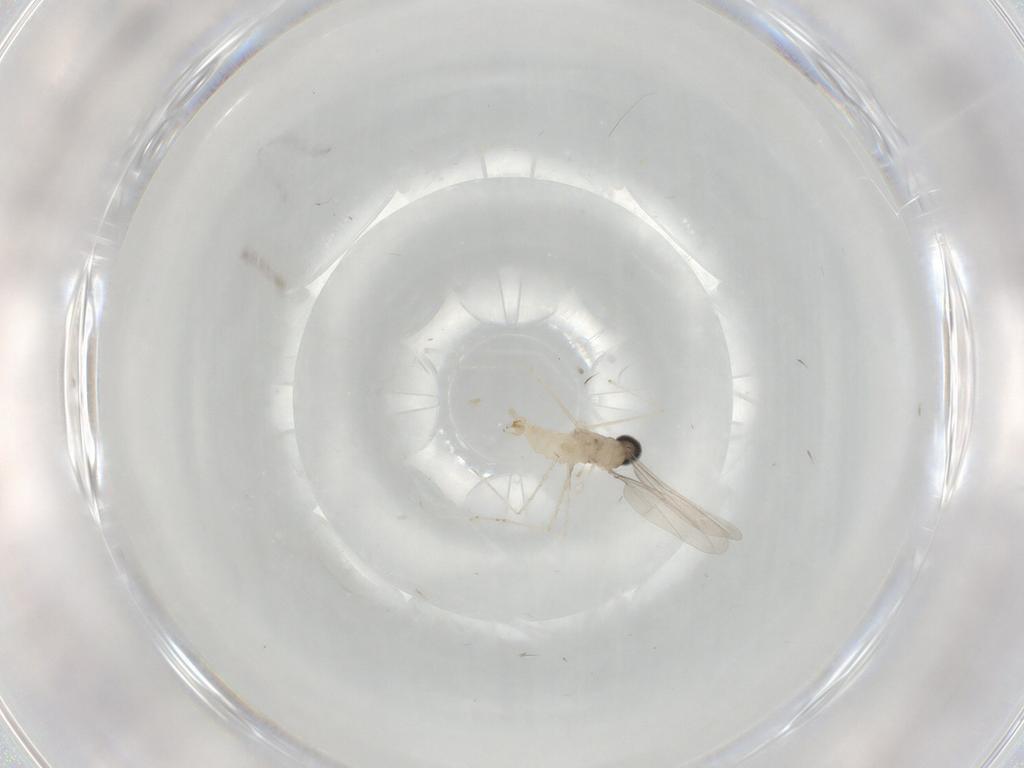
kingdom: Animalia
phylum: Arthropoda
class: Insecta
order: Diptera
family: Cecidomyiidae
